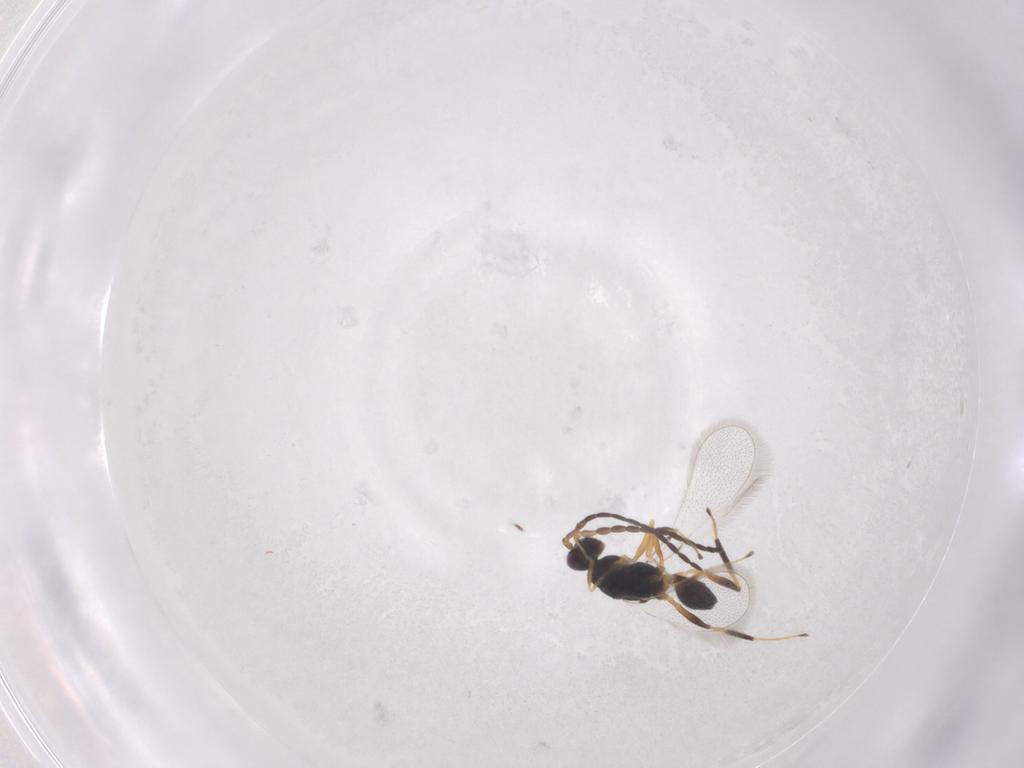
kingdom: Animalia
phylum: Arthropoda
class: Insecta
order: Hymenoptera
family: Mymaridae
